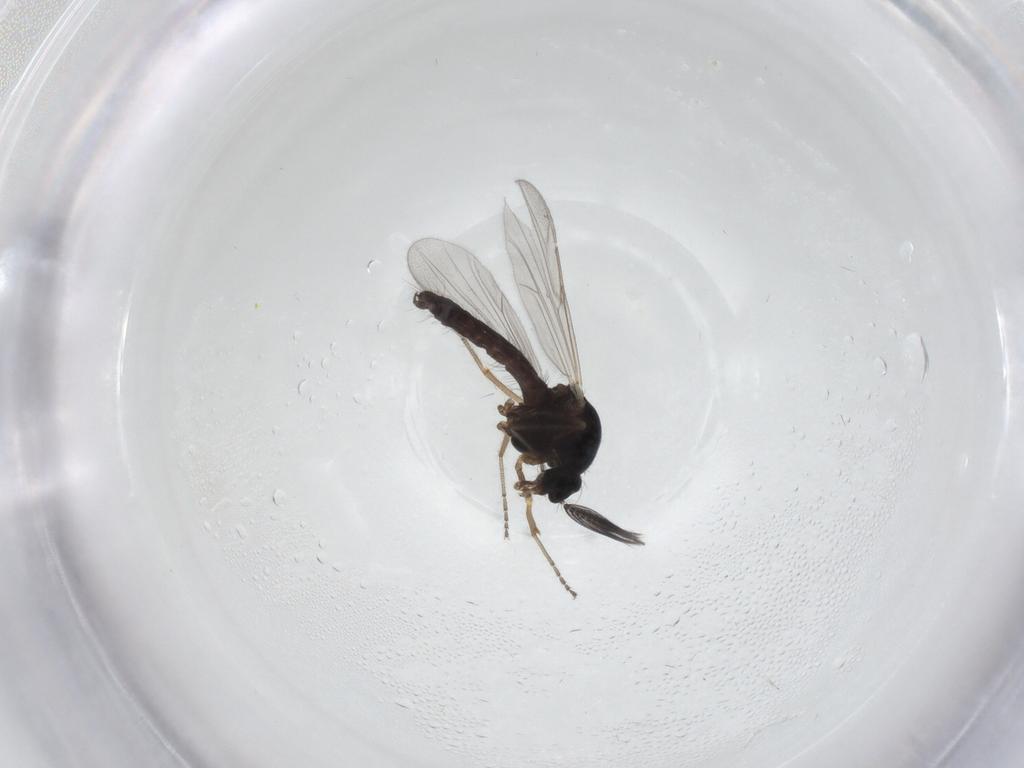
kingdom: Animalia
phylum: Arthropoda
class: Insecta
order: Diptera
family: Ceratopogonidae
